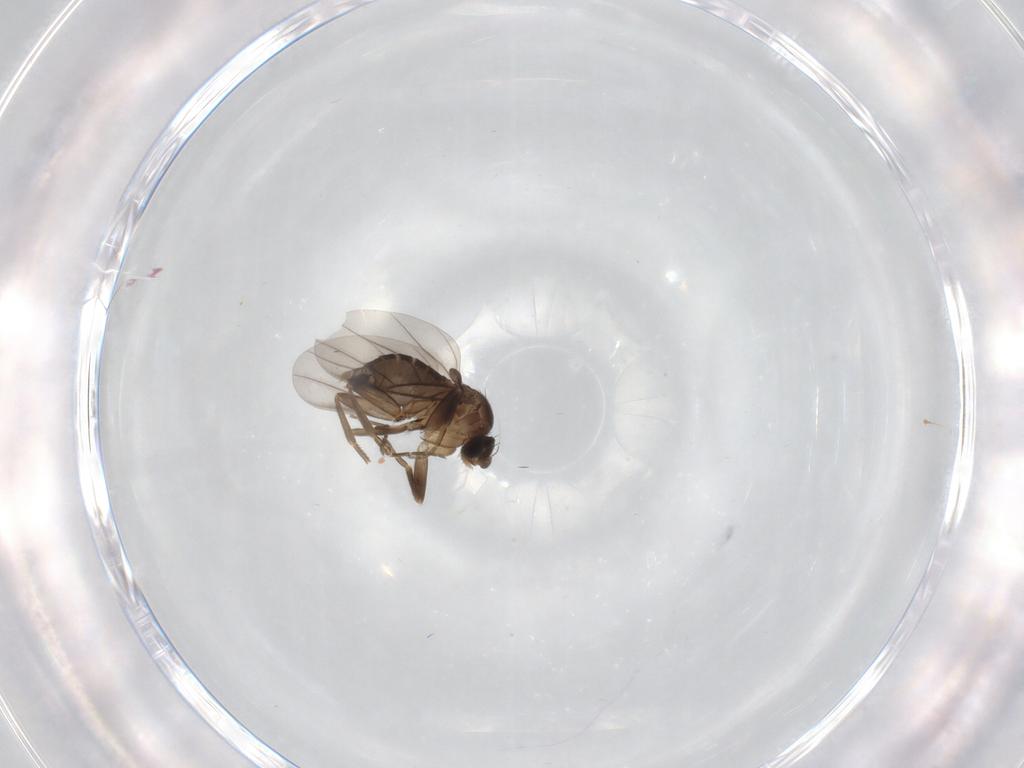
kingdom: Animalia
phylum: Arthropoda
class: Insecta
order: Diptera
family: Phoridae
